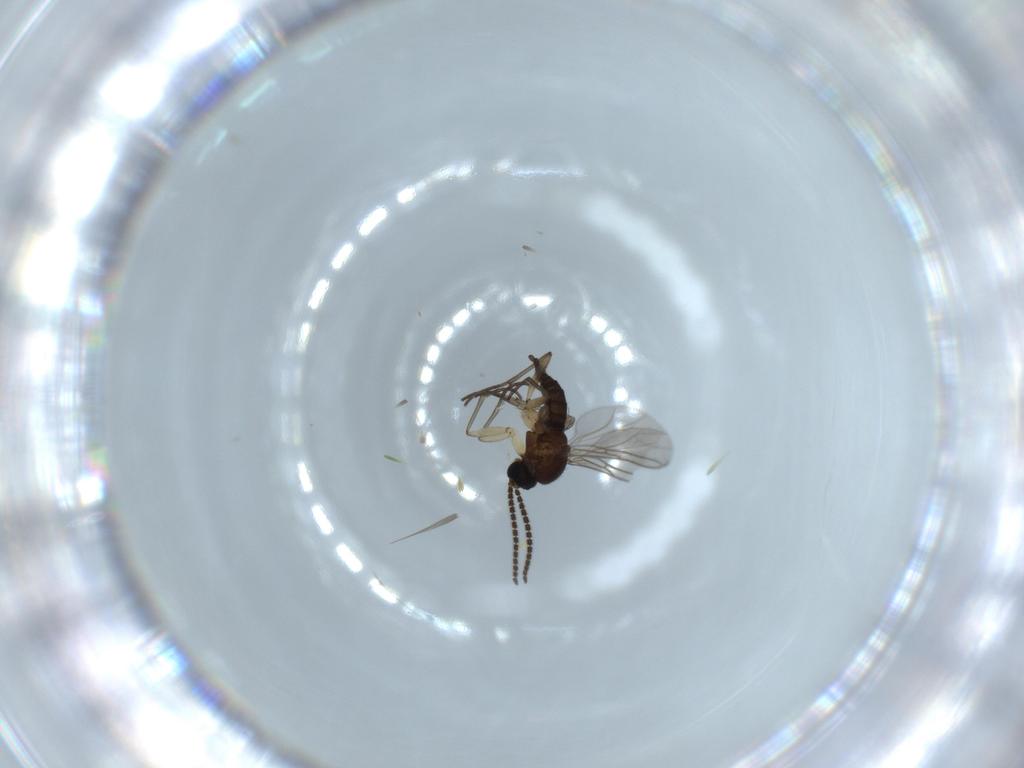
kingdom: Animalia
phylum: Arthropoda
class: Insecta
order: Diptera
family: Sciaridae
